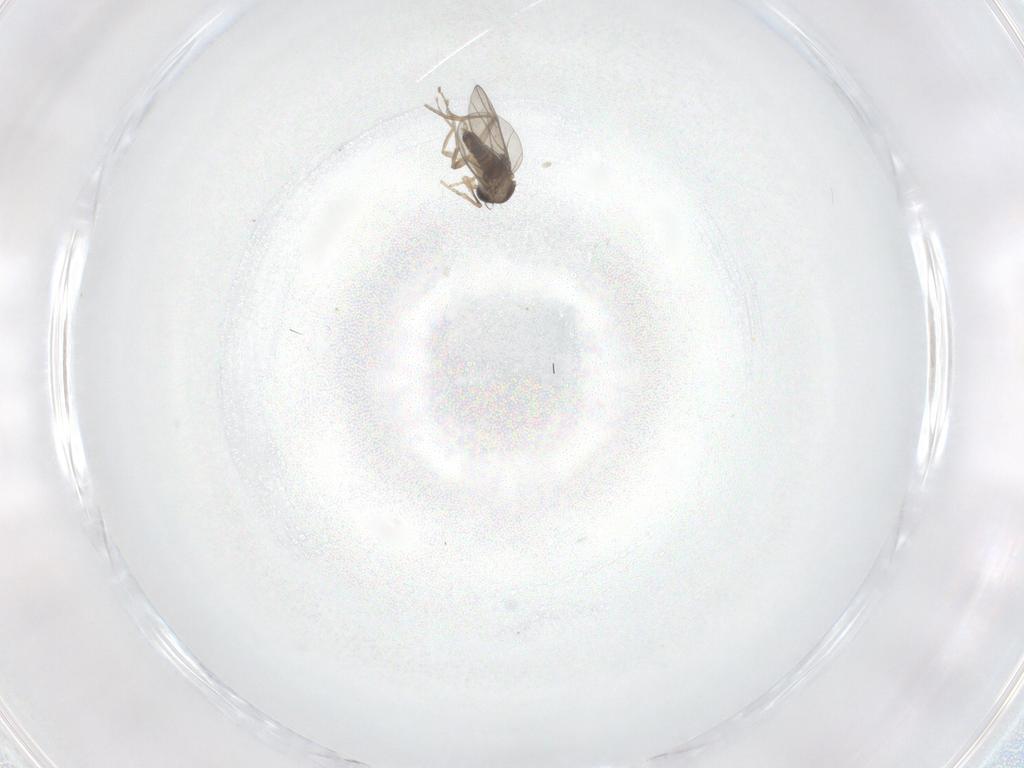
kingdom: Animalia
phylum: Arthropoda
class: Insecta
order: Diptera
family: Phoridae
